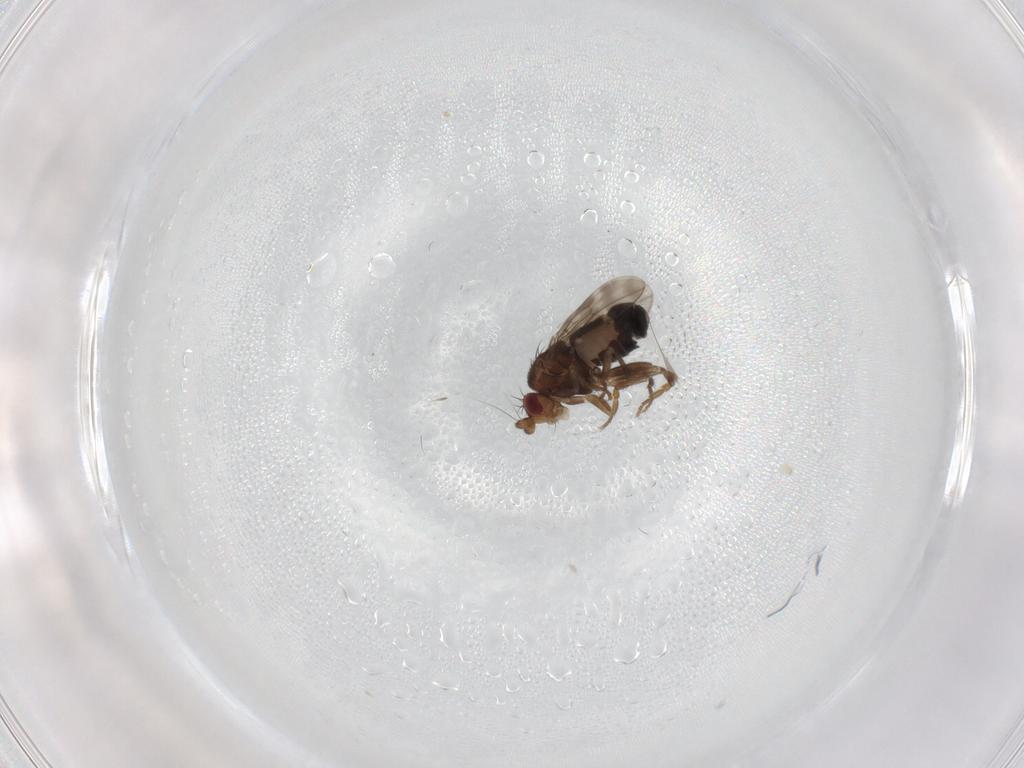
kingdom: Animalia
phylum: Arthropoda
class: Insecta
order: Diptera
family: Sphaeroceridae
